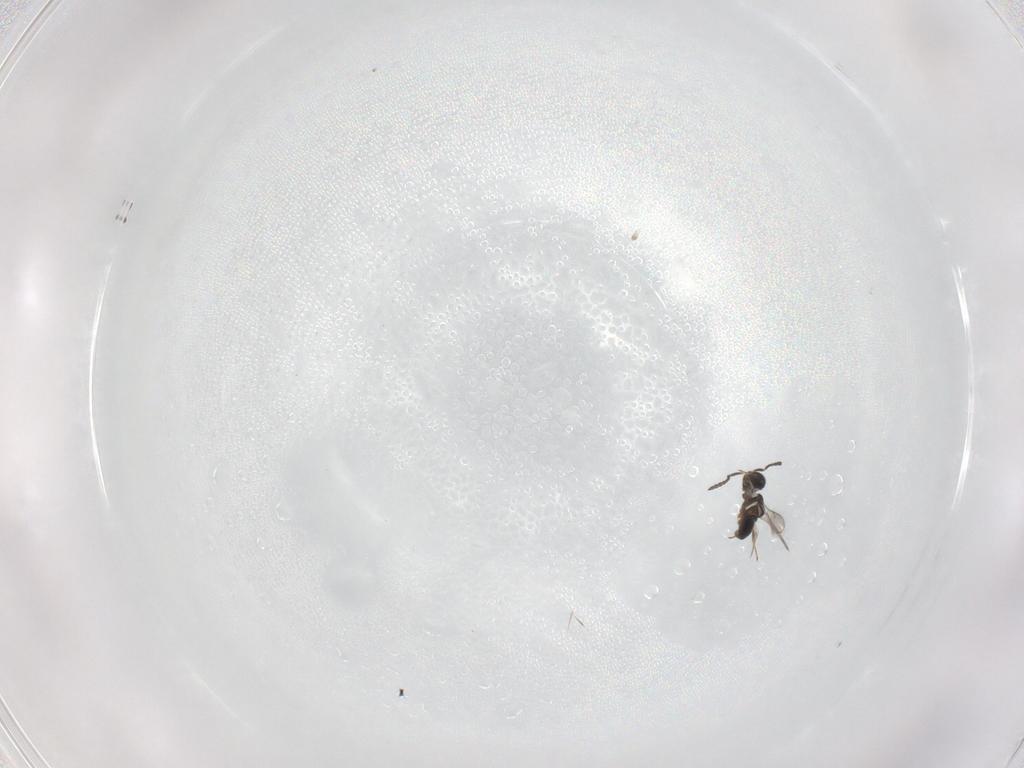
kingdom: Animalia
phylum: Arthropoda
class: Insecta
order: Hymenoptera
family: Scelionidae
